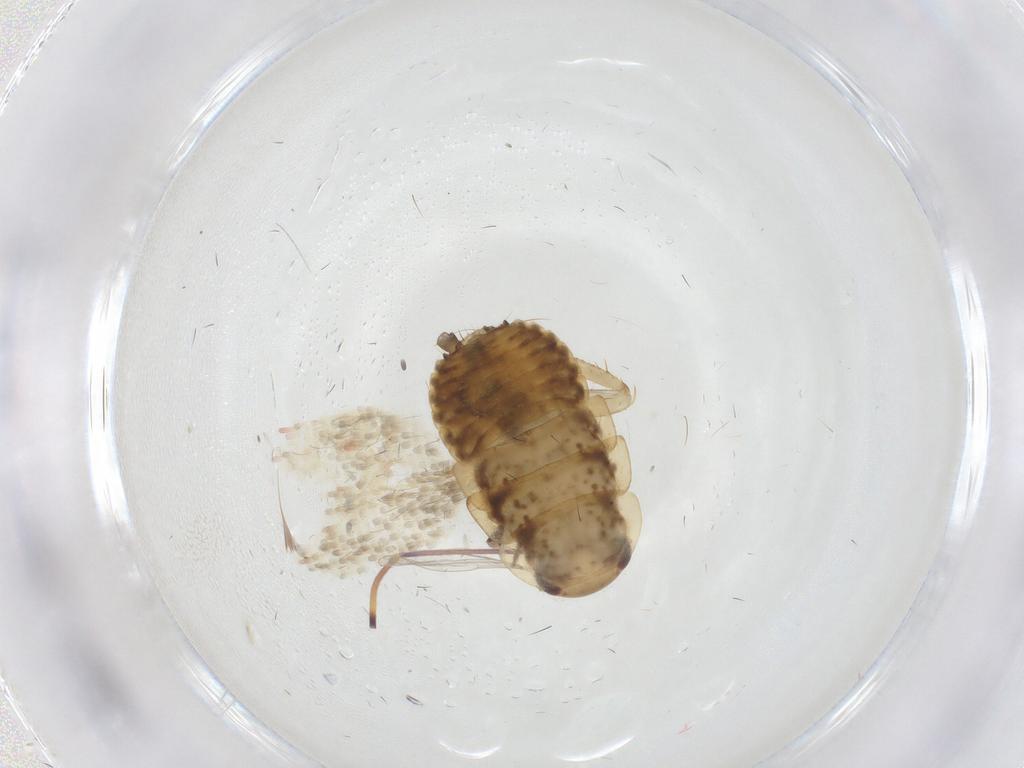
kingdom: Animalia
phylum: Arthropoda
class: Insecta
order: Blattodea
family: Ectobiidae
